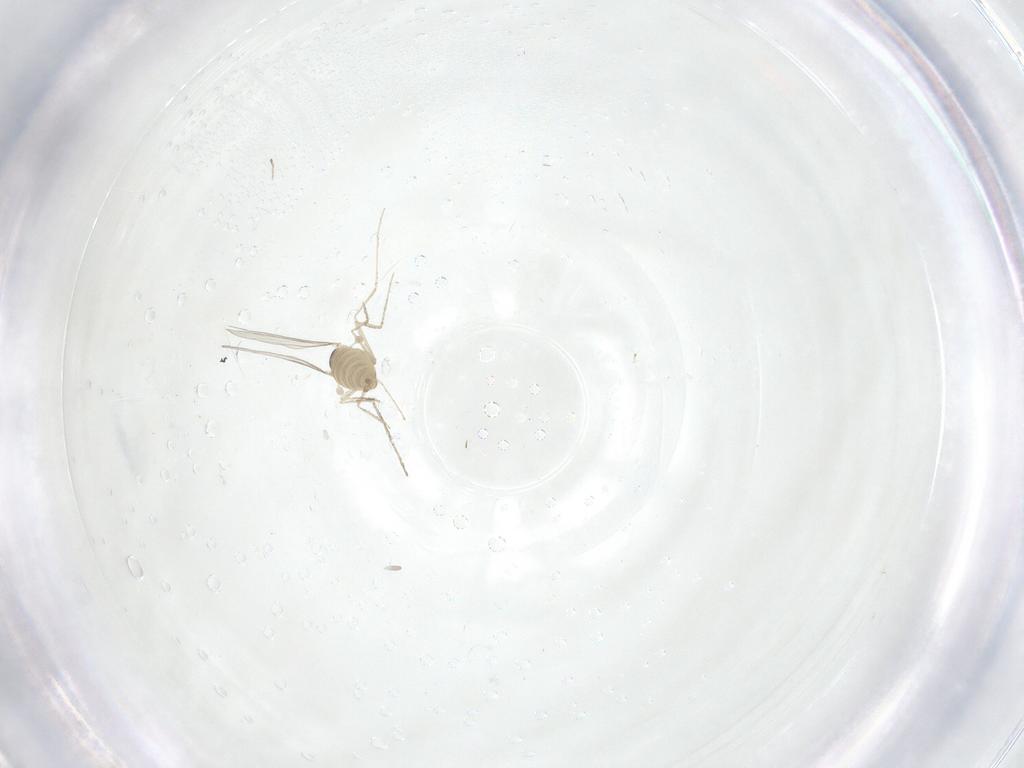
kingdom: Animalia
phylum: Arthropoda
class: Insecta
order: Diptera
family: Cecidomyiidae
